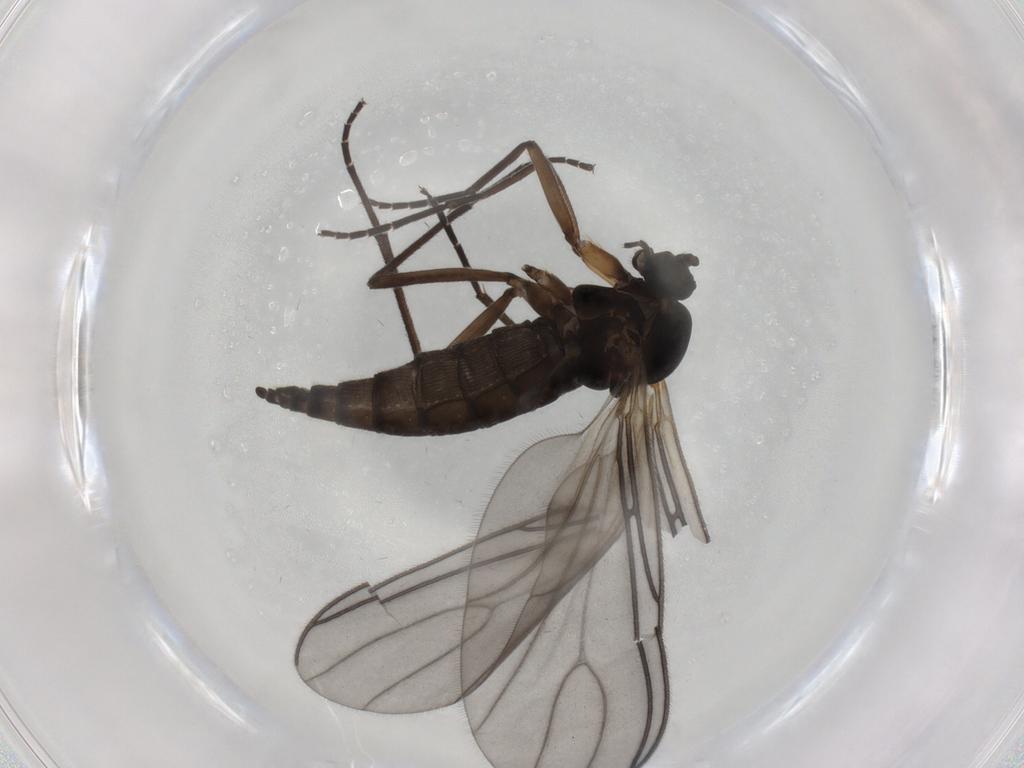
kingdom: Animalia
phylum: Arthropoda
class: Insecta
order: Diptera
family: Sciaridae
